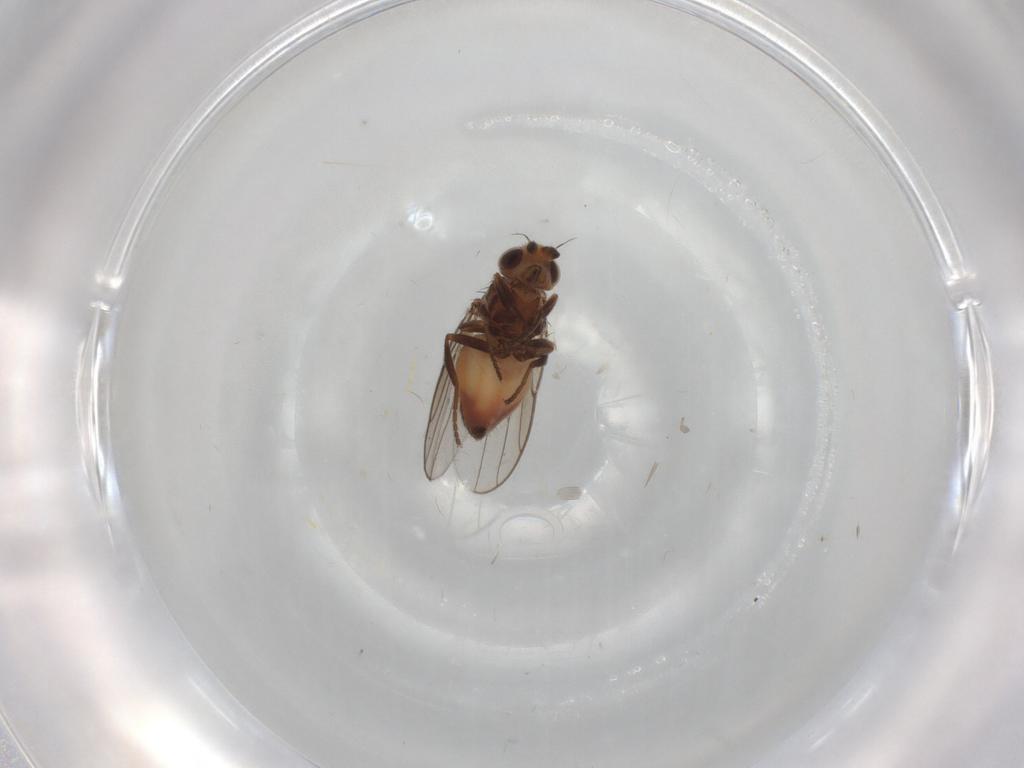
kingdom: Animalia
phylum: Arthropoda
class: Insecta
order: Diptera
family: Chloropidae
